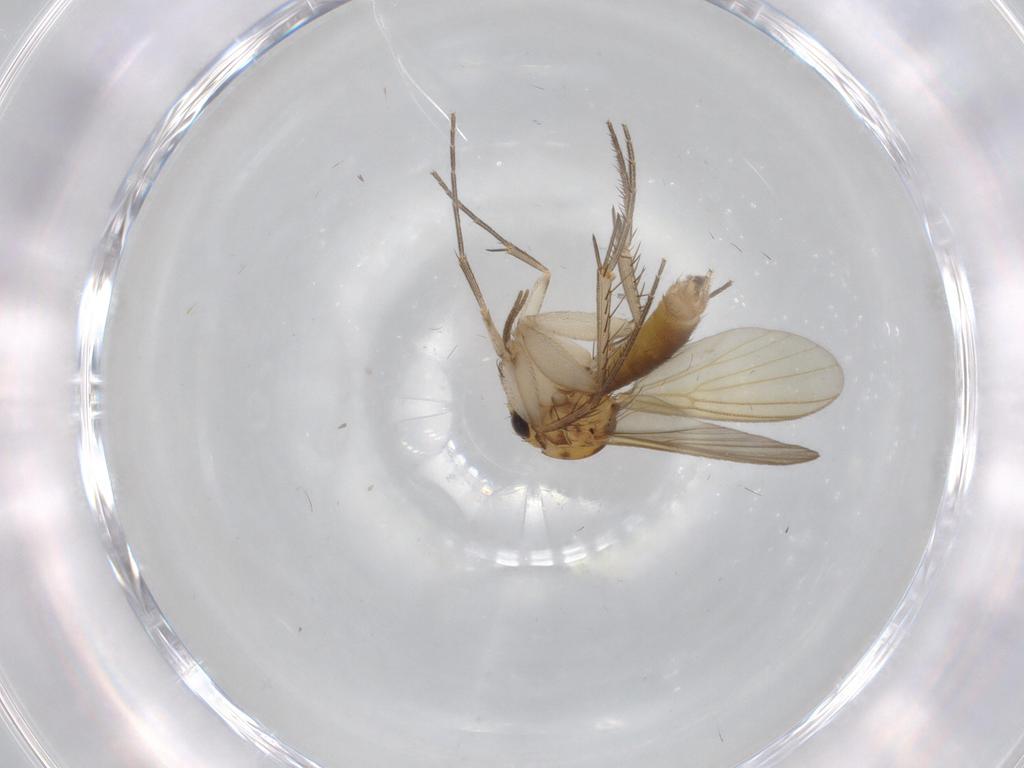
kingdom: Animalia
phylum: Arthropoda
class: Insecta
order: Diptera
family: Mycetophilidae
